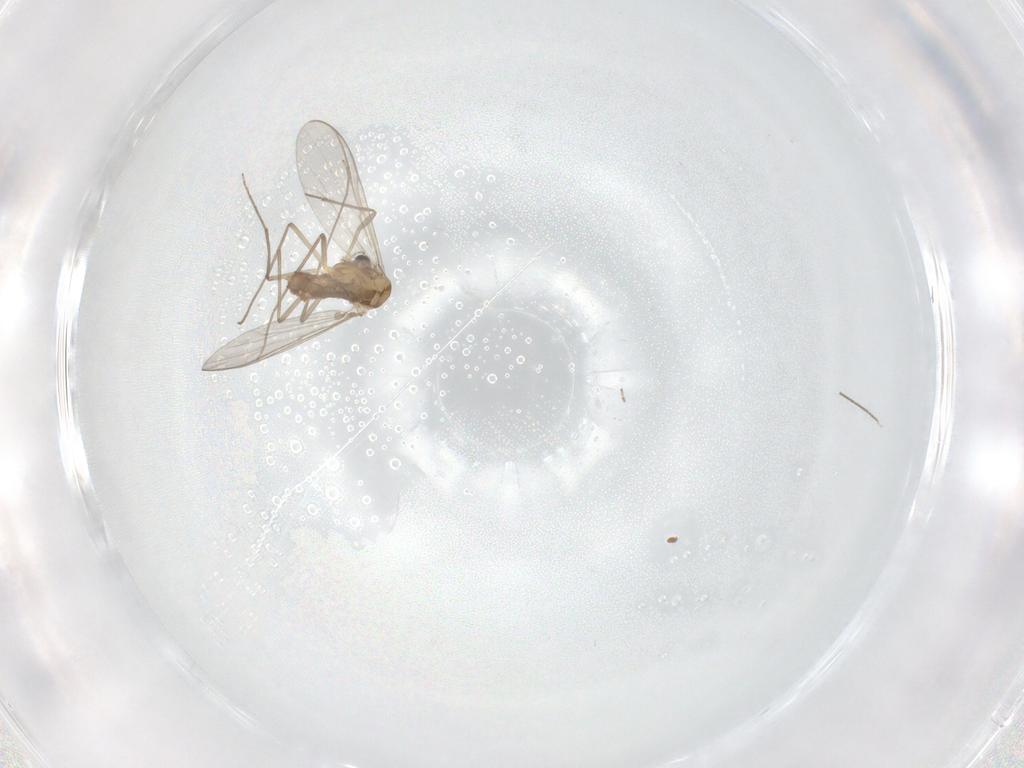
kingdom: Animalia
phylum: Arthropoda
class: Insecta
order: Diptera
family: Chironomidae
